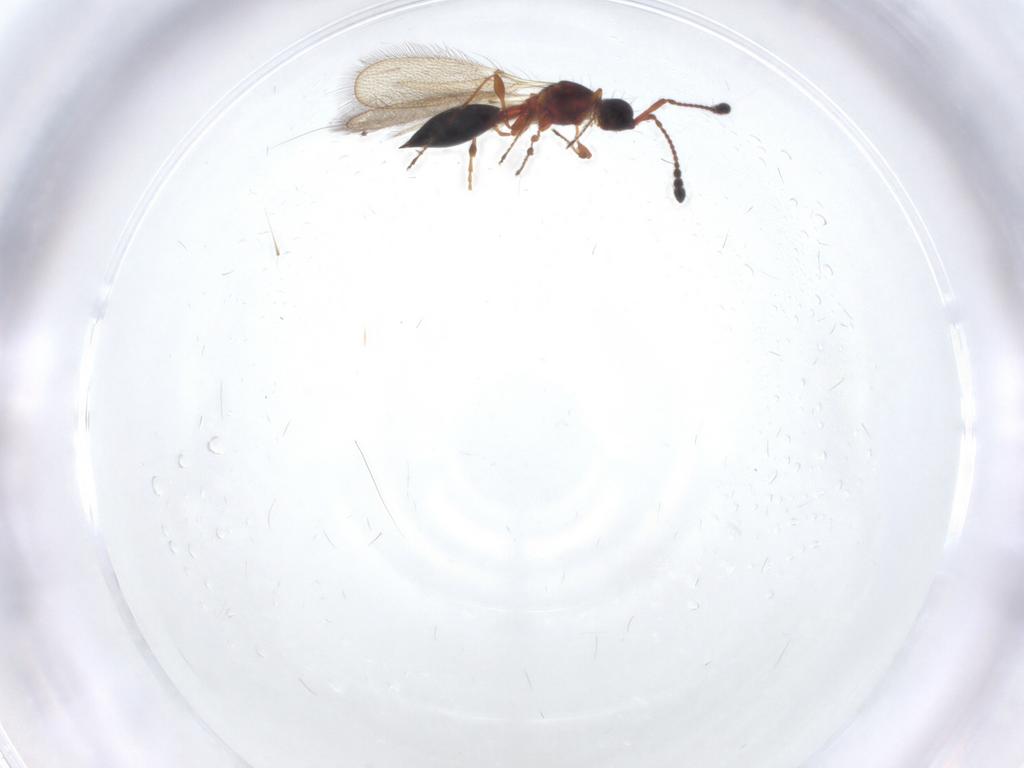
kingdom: Animalia
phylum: Arthropoda
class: Insecta
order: Hymenoptera
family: Diapriidae
